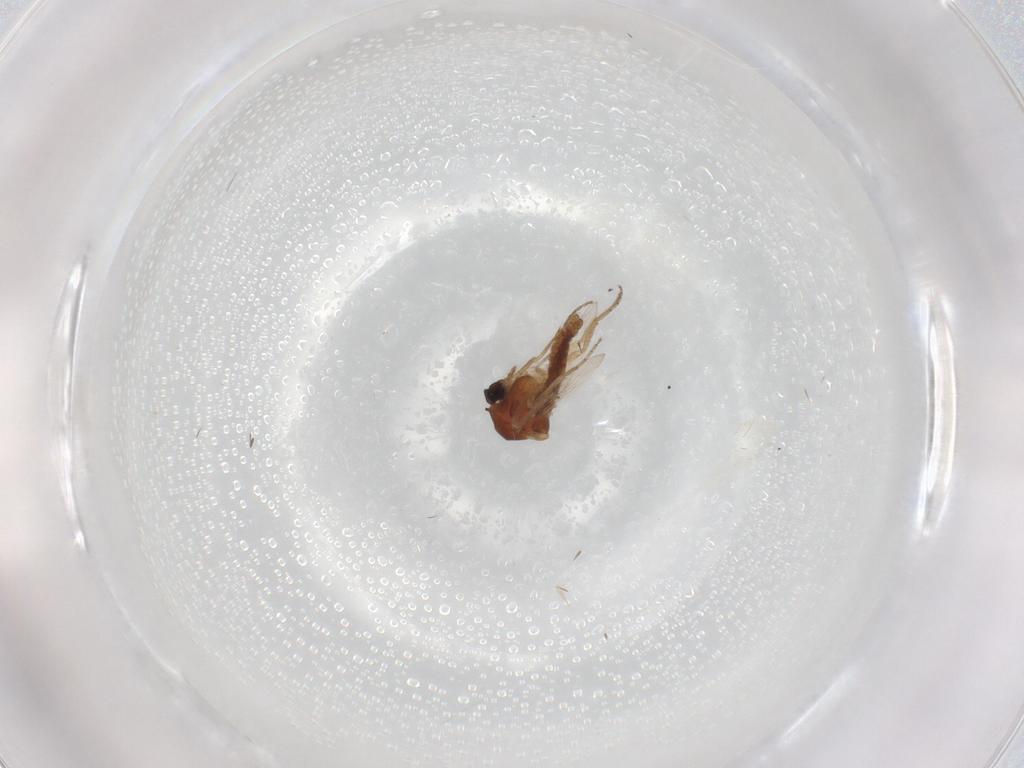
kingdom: Animalia
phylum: Arthropoda
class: Insecta
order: Diptera
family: Ceratopogonidae
